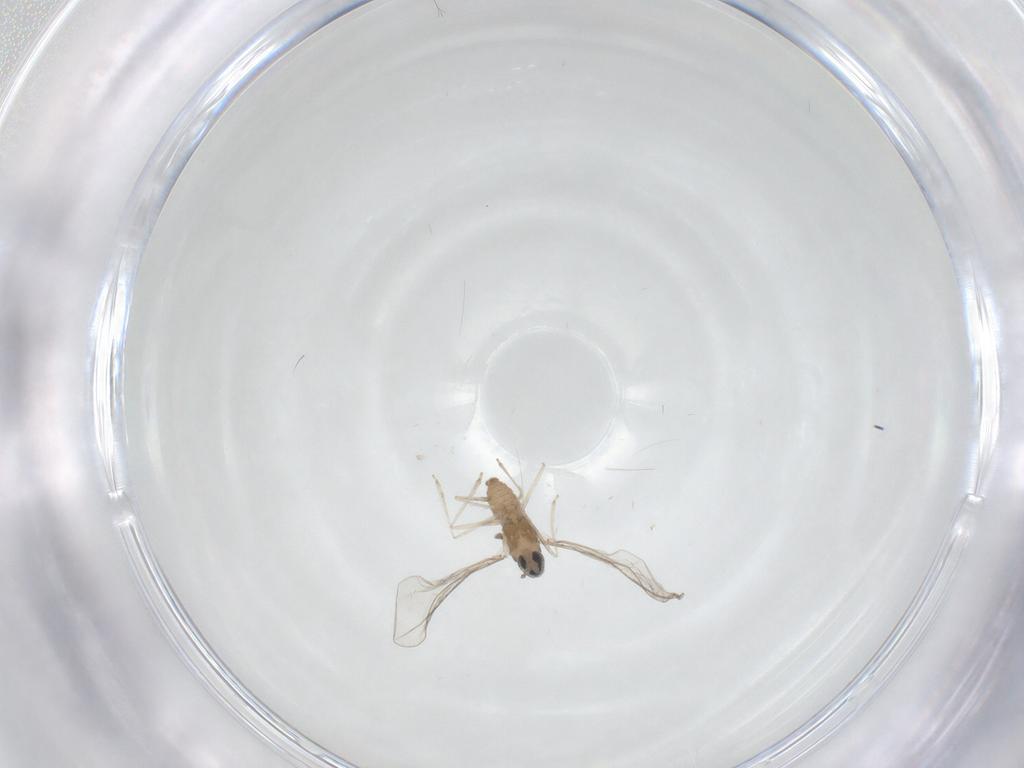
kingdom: Animalia
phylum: Arthropoda
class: Insecta
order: Diptera
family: Cecidomyiidae
